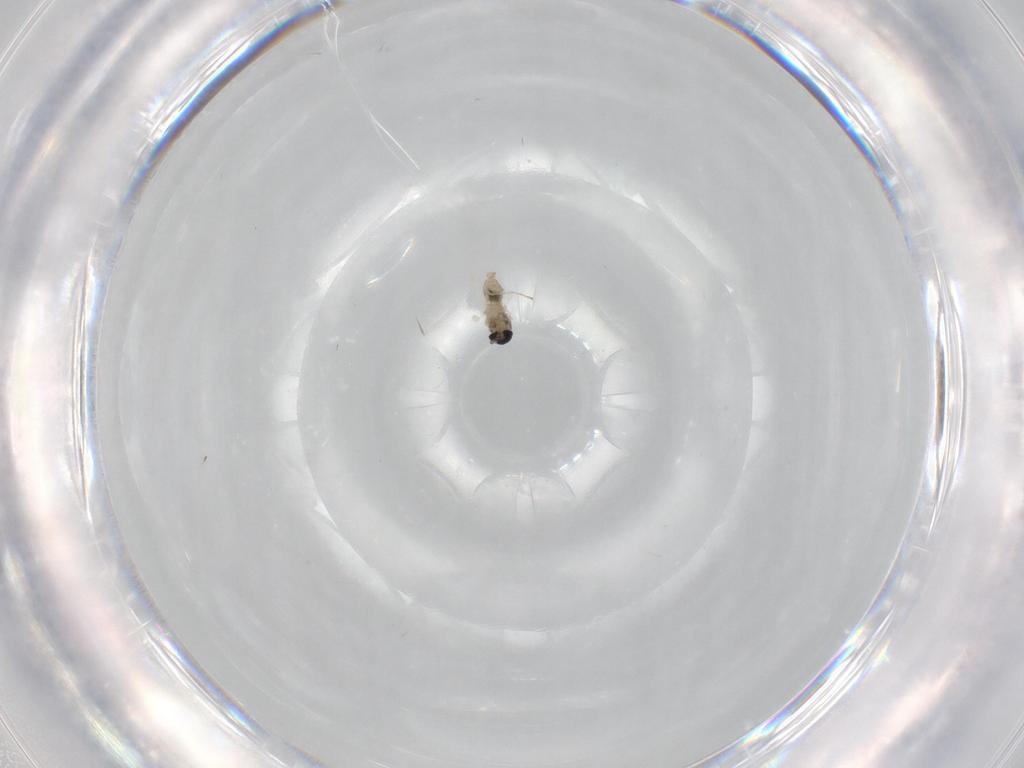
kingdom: Animalia
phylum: Arthropoda
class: Insecta
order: Diptera
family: Cecidomyiidae
